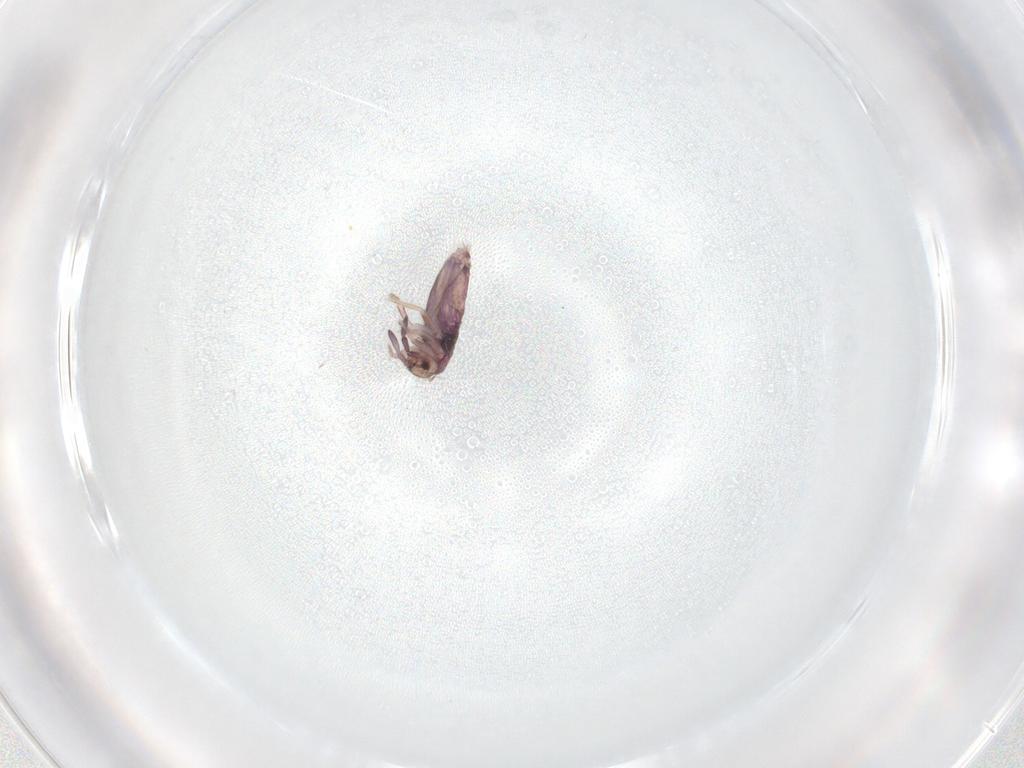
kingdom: Animalia
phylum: Arthropoda
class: Collembola
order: Entomobryomorpha
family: Entomobryidae
